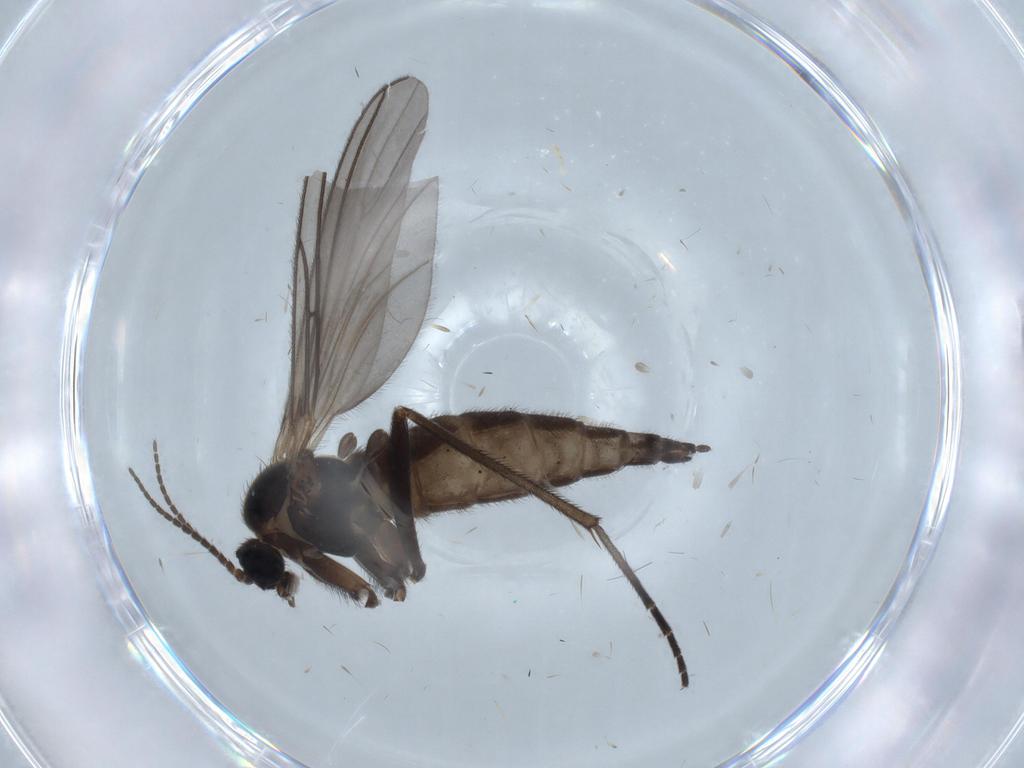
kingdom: Animalia
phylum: Arthropoda
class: Insecta
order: Diptera
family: Sciaridae
